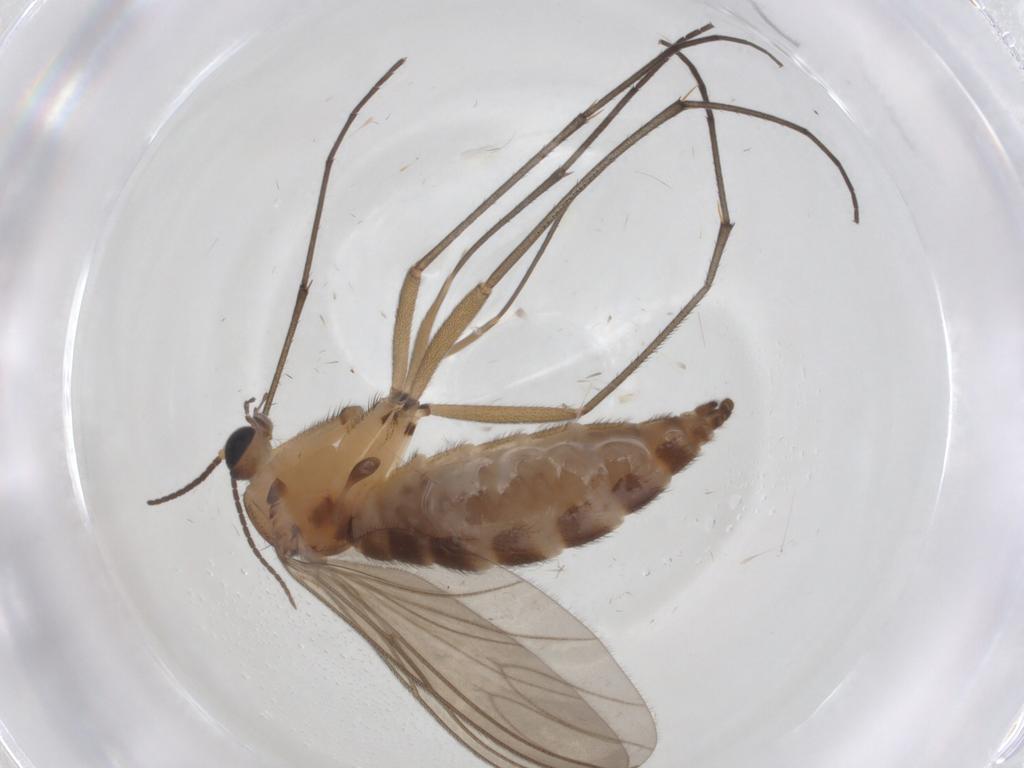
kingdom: Animalia
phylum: Arthropoda
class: Insecta
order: Diptera
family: Sciaridae
